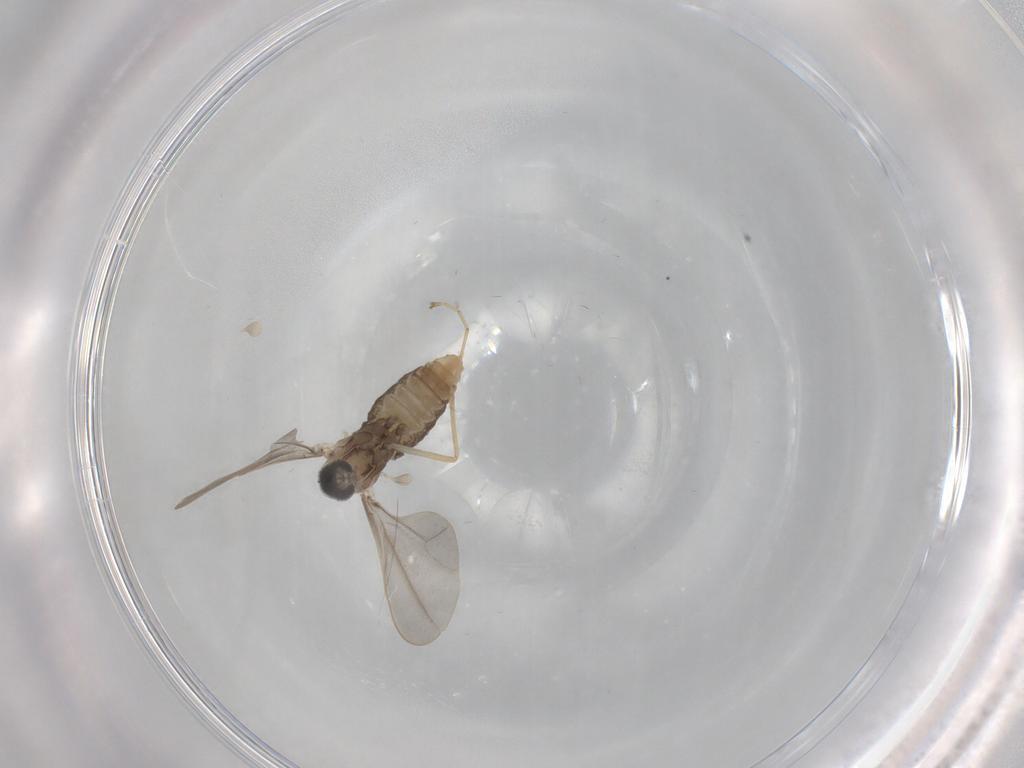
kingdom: Animalia
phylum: Arthropoda
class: Insecta
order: Diptera
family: Cecidomyiidae
